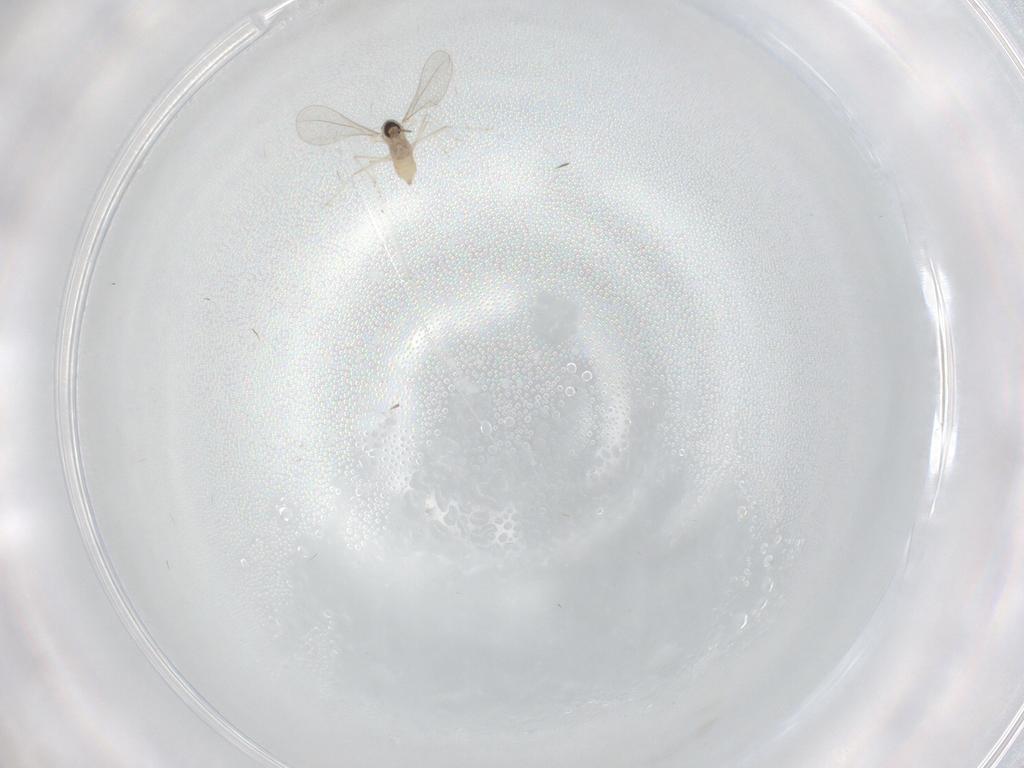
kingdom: Animalia
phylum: Arthropoda
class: Insecta
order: Diptera
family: Cecidomyiidae
